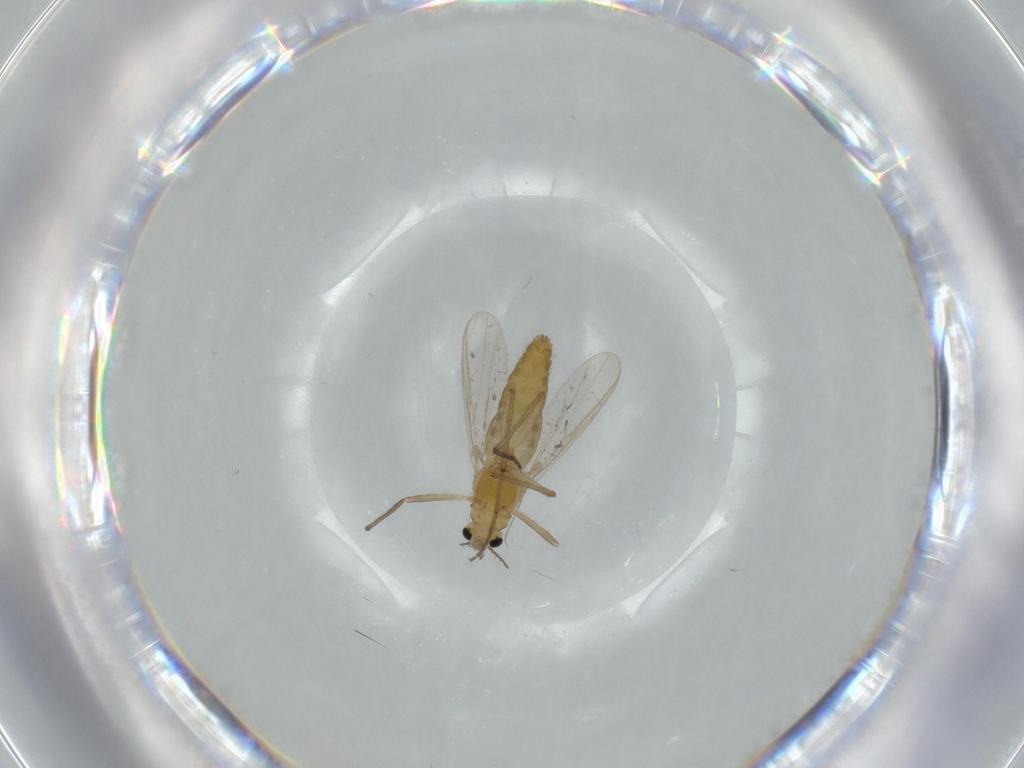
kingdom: Animalia
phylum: Arthropoda
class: Insecta
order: Diptera
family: Chironomidae
